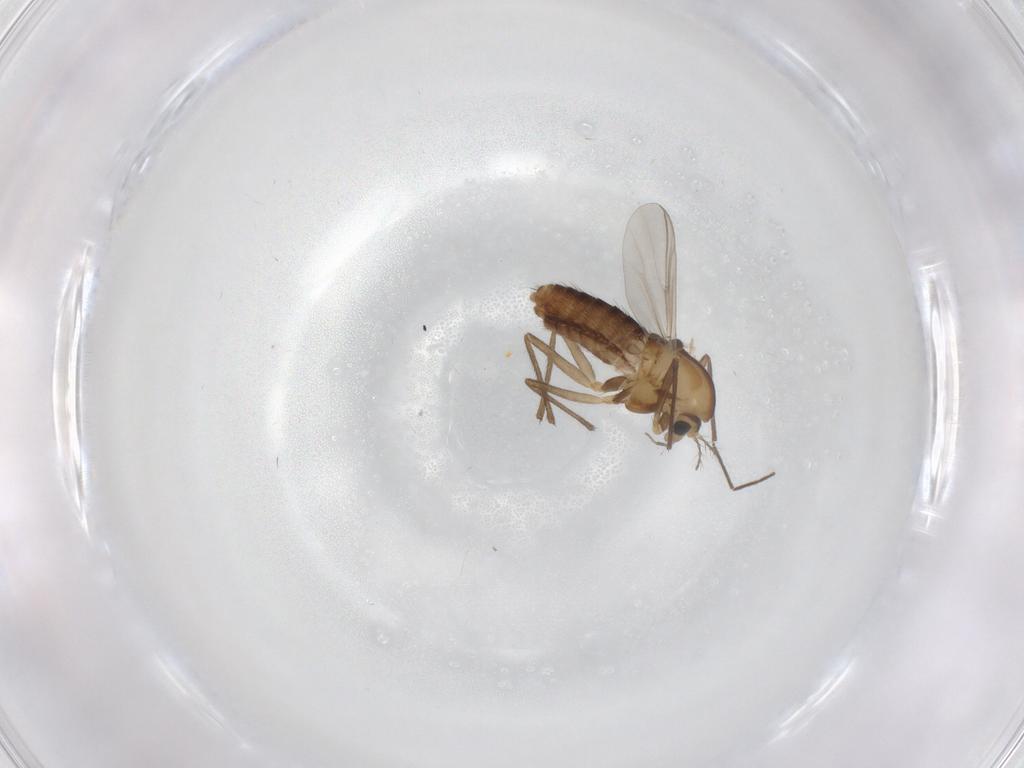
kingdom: Animalia
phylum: Arthropoda
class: Insecta
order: Diptera
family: Chironomidae
